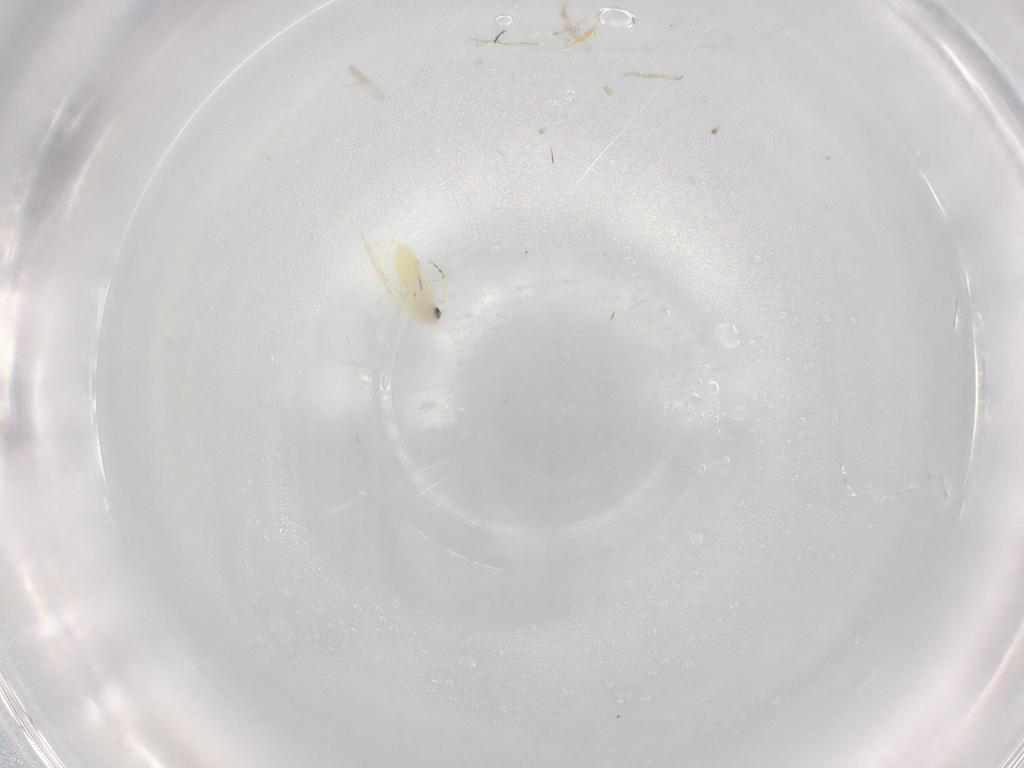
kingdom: Animalia
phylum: Arthropoda
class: Insecta
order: Hemiptera
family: Aleyrodidae
